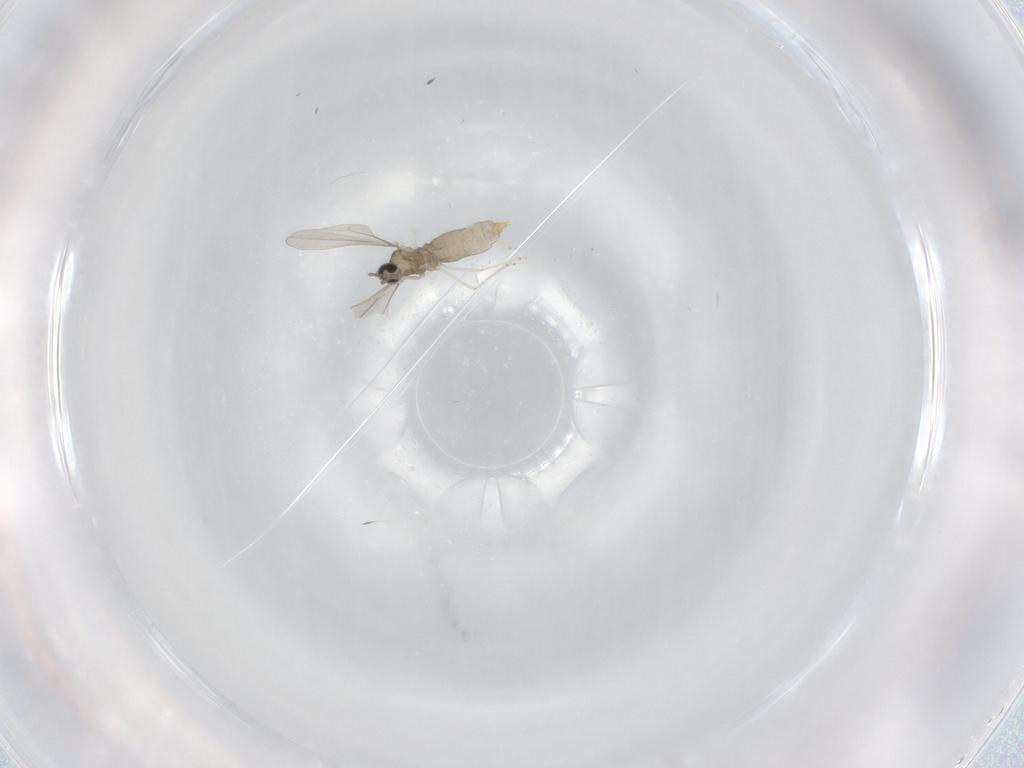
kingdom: Animalia
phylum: Arthropoda
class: Insecta
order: Diptera
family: Cecidomyiidae
